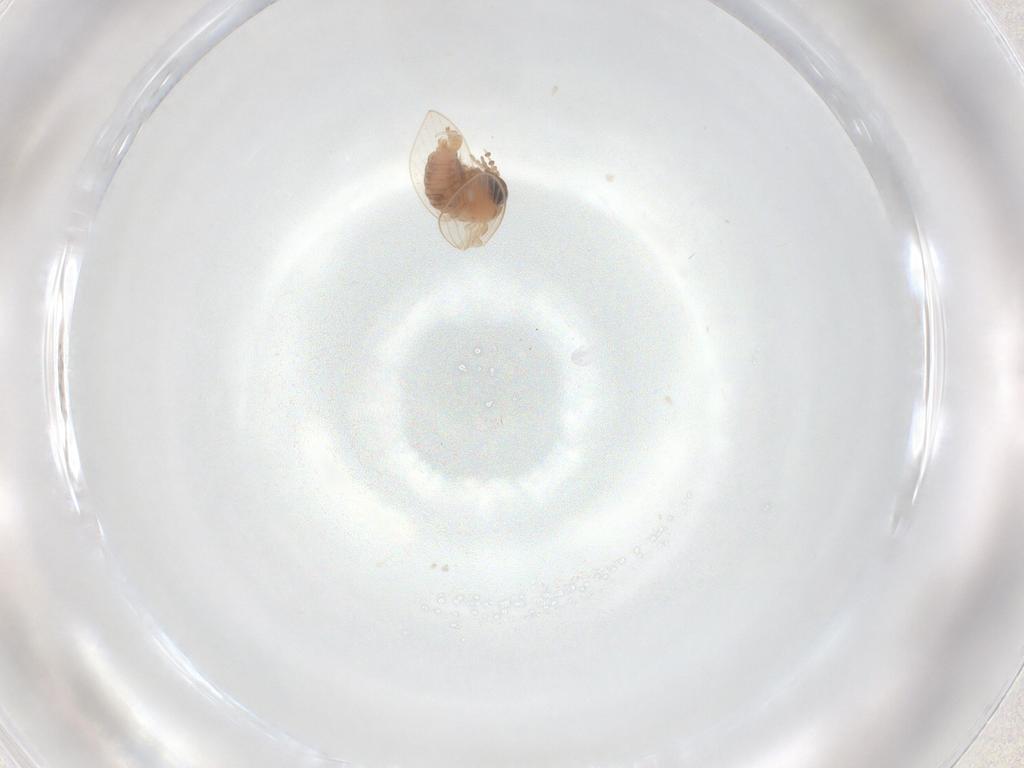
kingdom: Animalia
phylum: Arthropoda
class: Insecta
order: Diptera
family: Psychodidae
